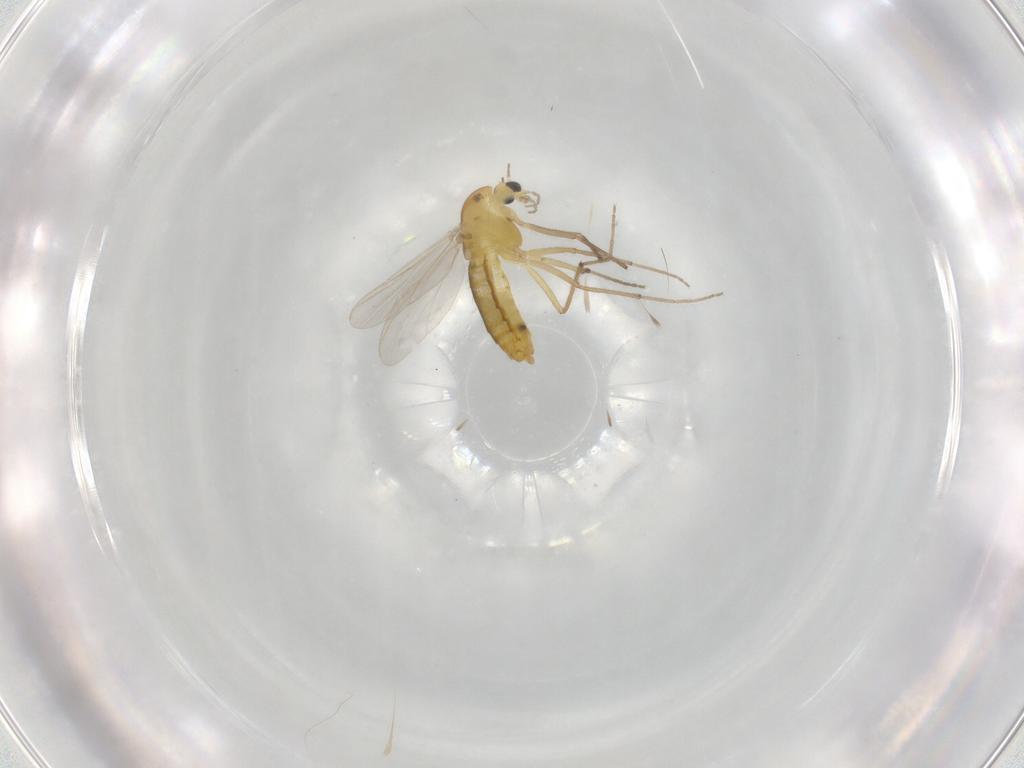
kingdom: Animalia
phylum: Arthropoda
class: Insecta
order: Diptera
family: Chironomidae
